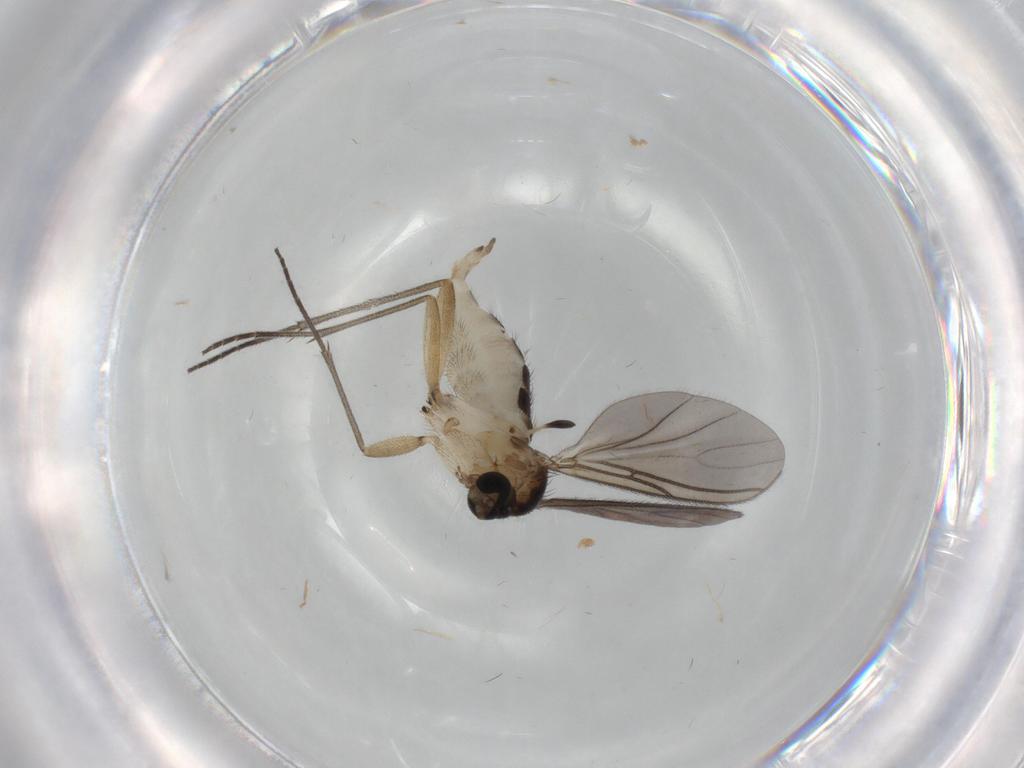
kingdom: Animalia
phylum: Arthropoda
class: Insecta
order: Diptera
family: Sciaridae
